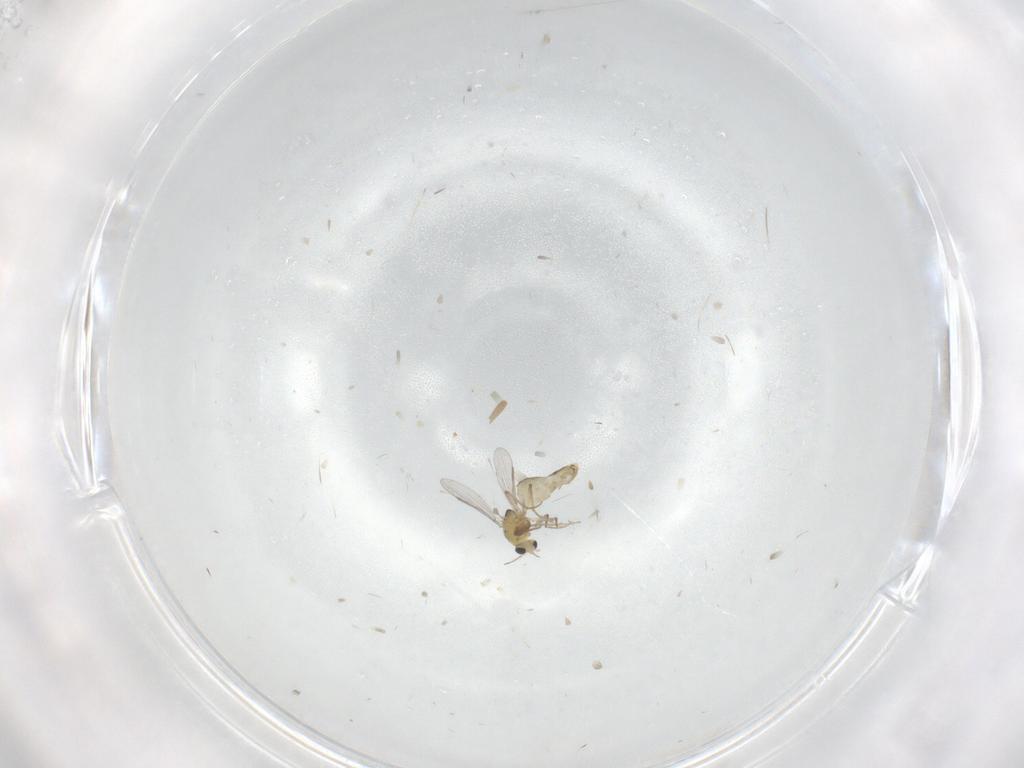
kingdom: Animalia
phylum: Arthropoda
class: Insecta
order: Diptera
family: Chironomidae
